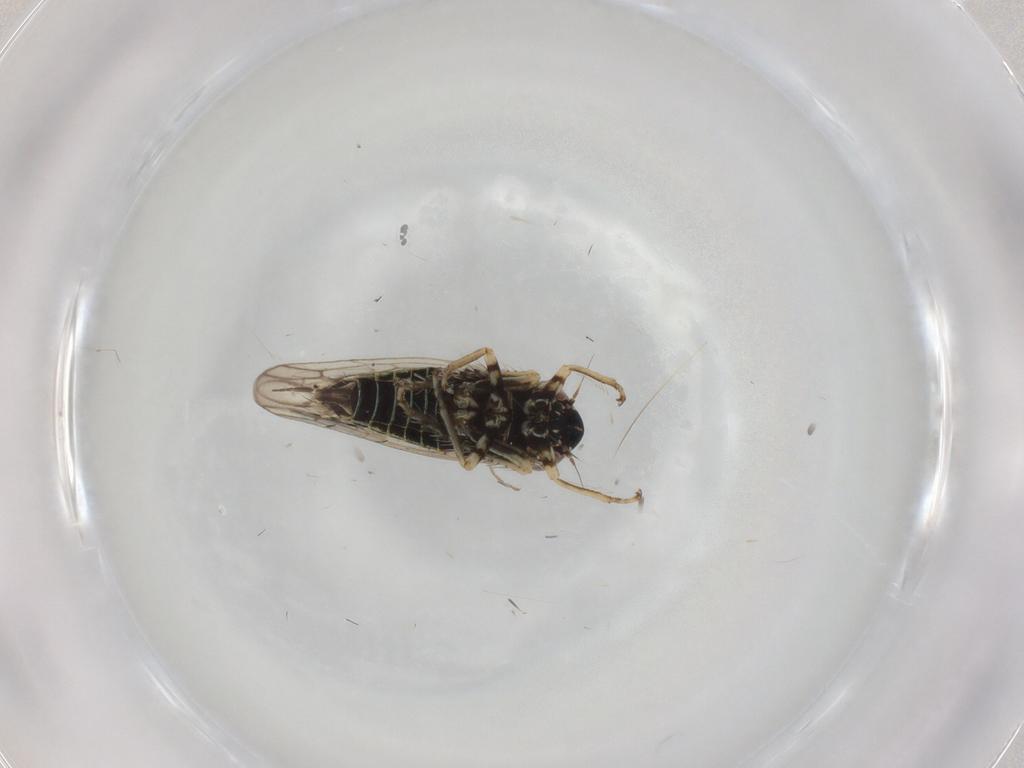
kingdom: Animalia
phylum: Arthropoda
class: Insecta
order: Hemiptera
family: Cicadellidae
